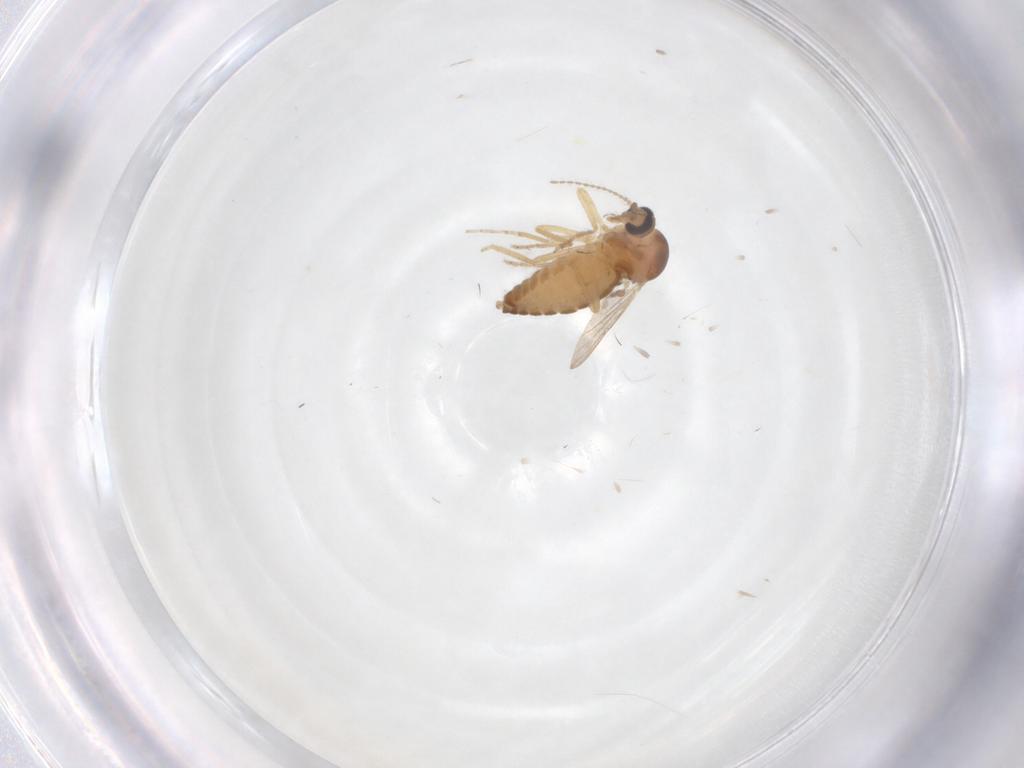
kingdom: Animalia
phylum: Arthropoda
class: Insecta
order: Diptera
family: Ceratopogonidae
